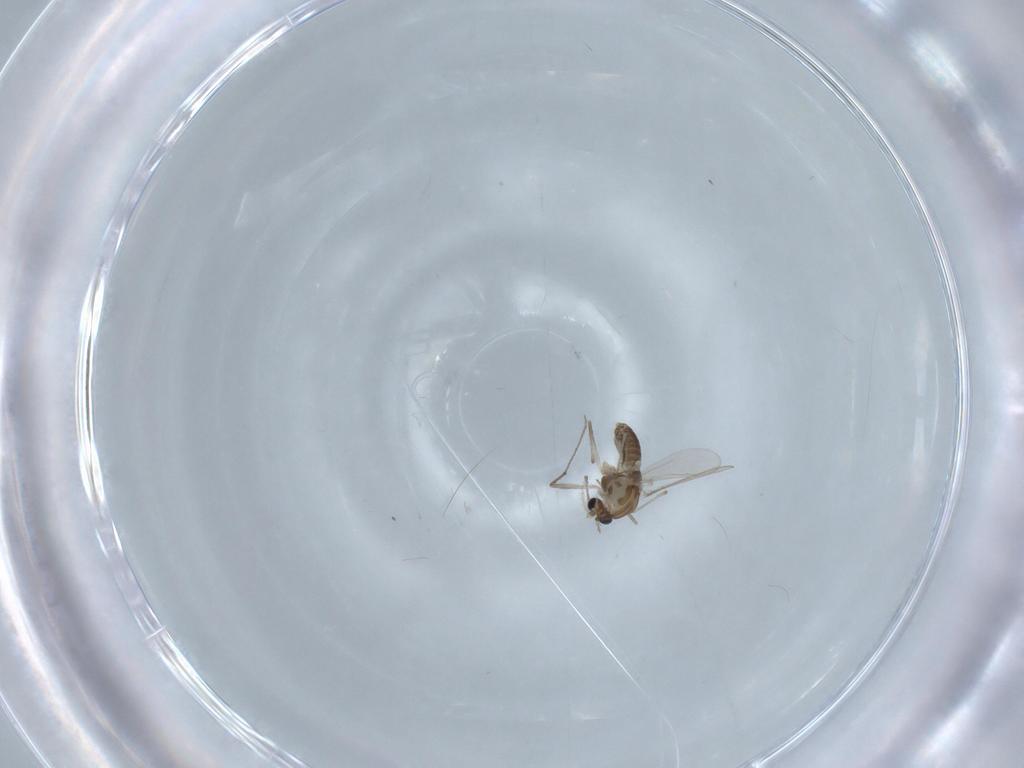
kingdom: Animalia
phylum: Arthropoda
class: Insecta
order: Diptera
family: Chironomidae
